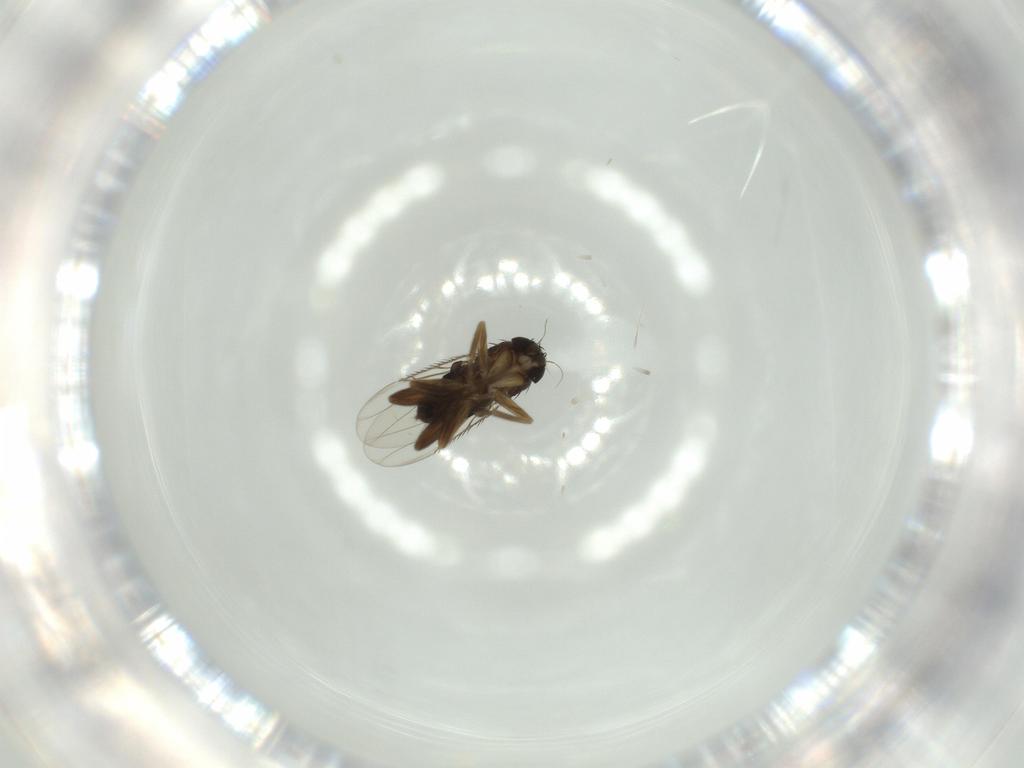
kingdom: Animalia
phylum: Arthropoda
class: Insecta
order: Diptera
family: Phoridae
